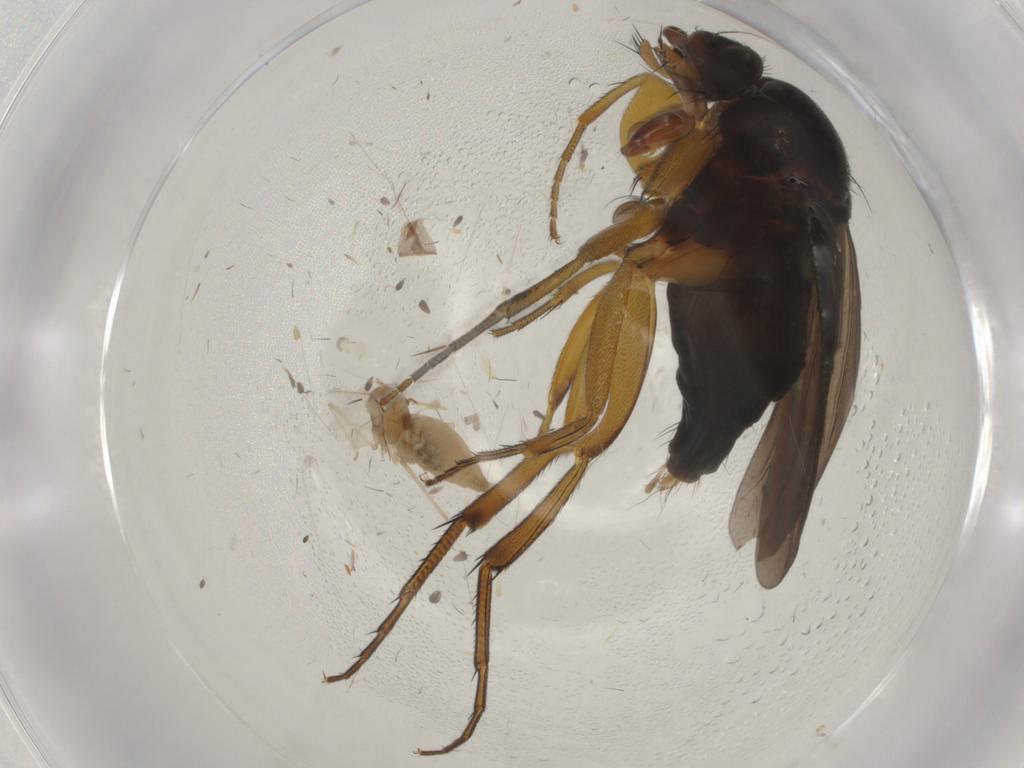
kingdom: Animalia
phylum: Arthropoda
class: Insecta
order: Diptera
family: Cecidomyiidae
